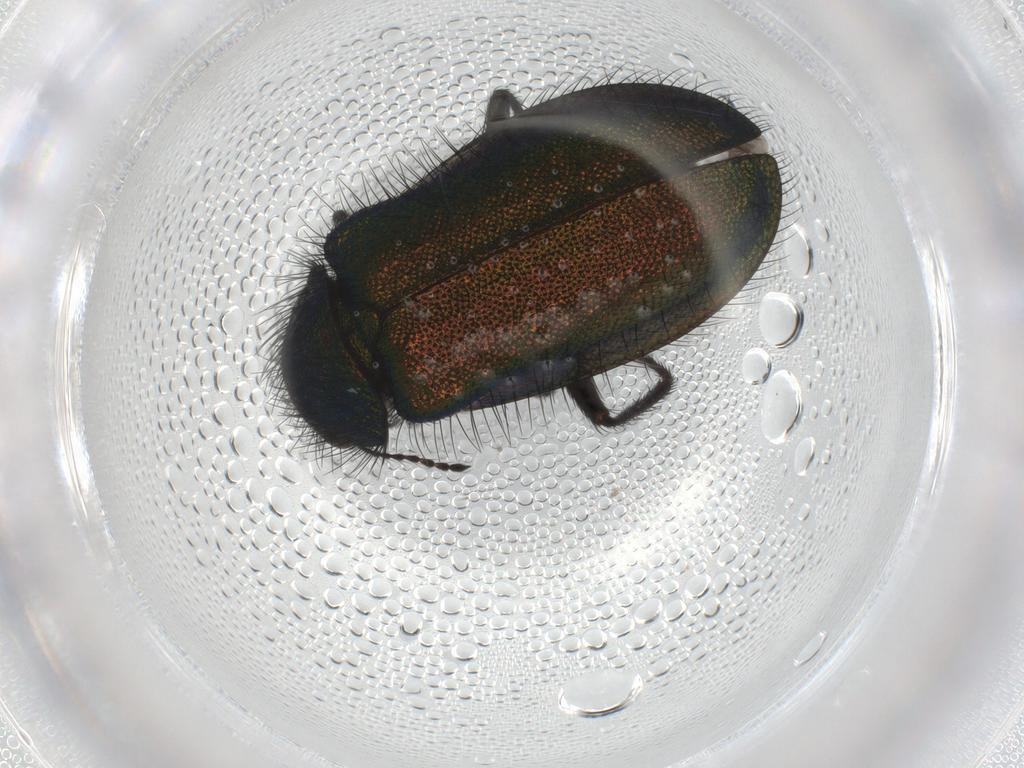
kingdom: Animalia
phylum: Arthropoda
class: Insecta
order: Coleoptera
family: Melyridae
